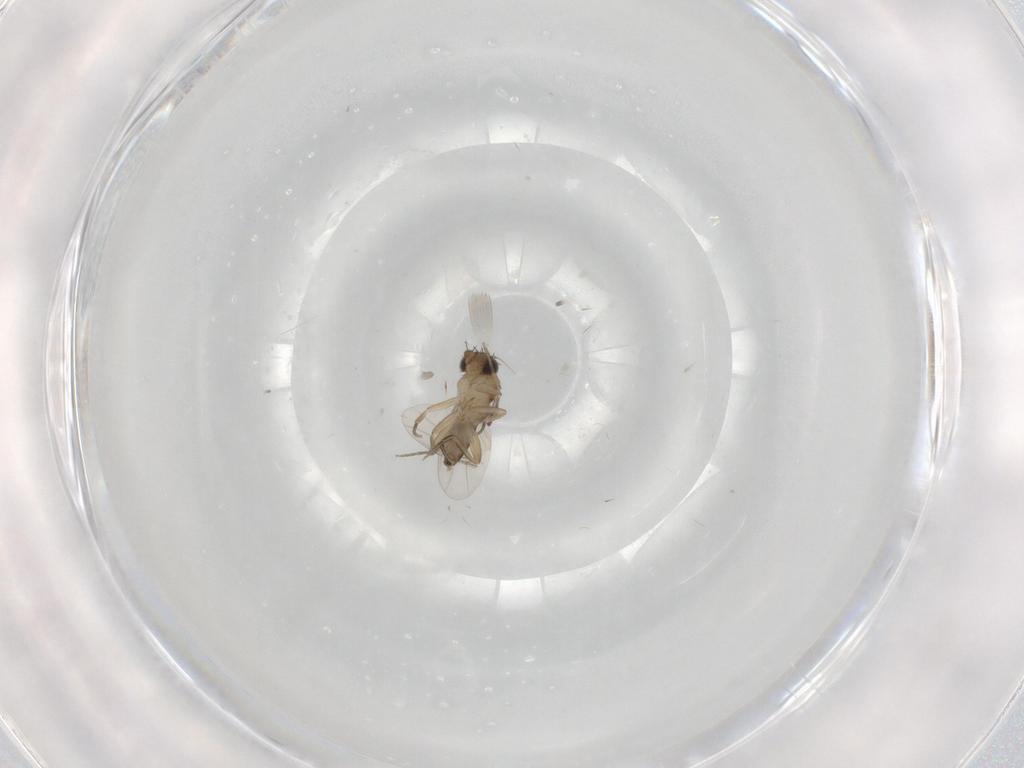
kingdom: Animalia
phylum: Arthropoda
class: Insecta
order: Diptera
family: Phoridae
